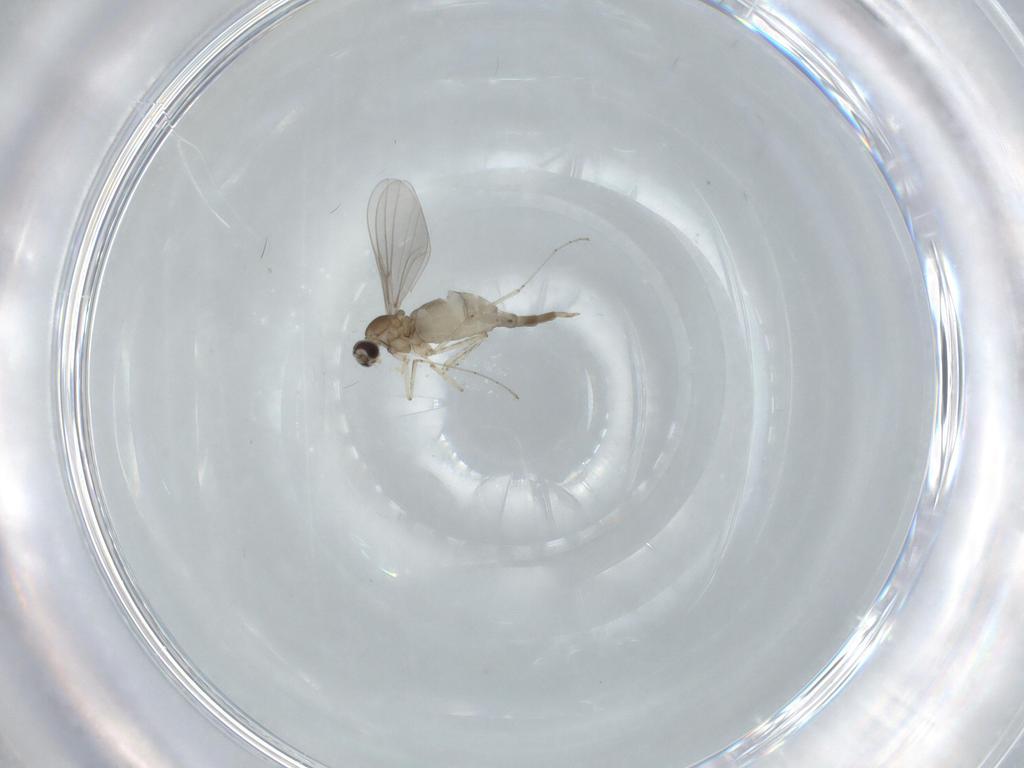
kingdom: Animalia
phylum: Arthropoda
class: Insecta
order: Diptera
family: Cecidomyiidae
